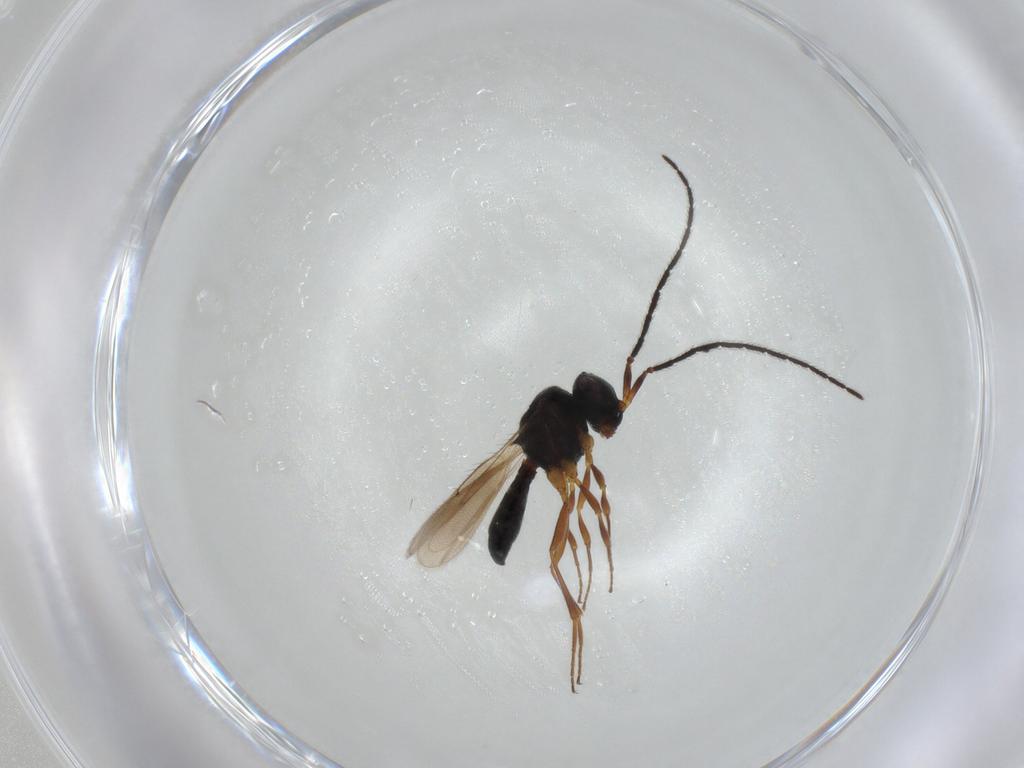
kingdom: Animalia
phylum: Arthropoda
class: Insecta
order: Hymenoptera
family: Scelionidae
